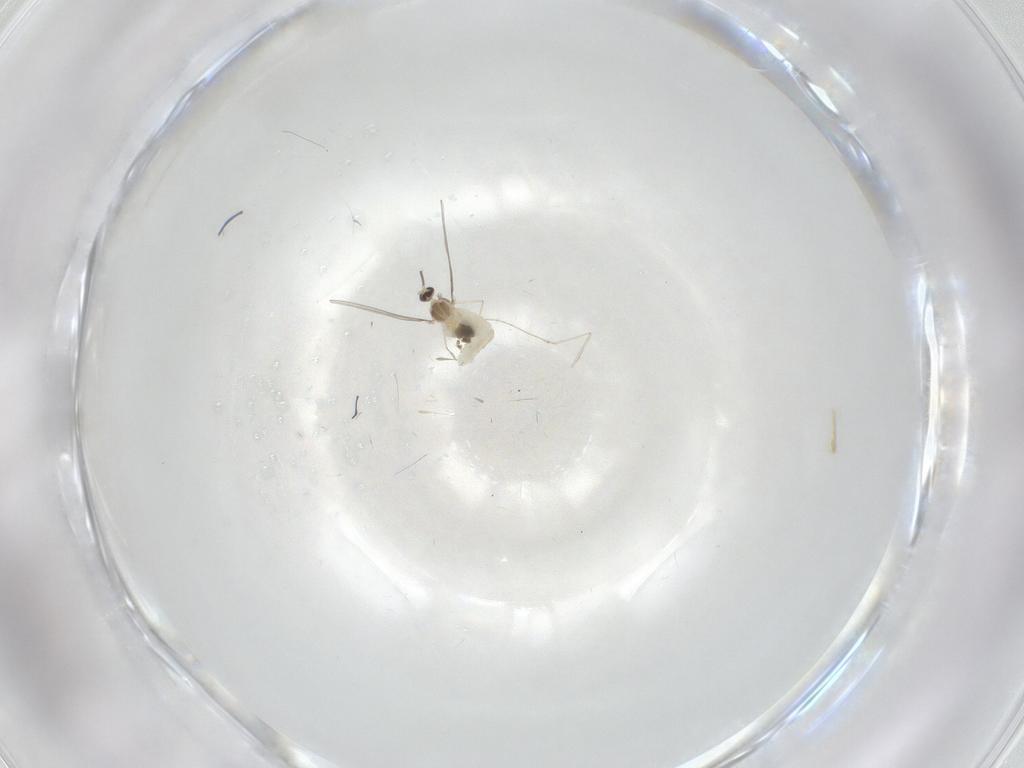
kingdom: Animalia
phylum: Arthropoda
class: Insecta
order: Diptera
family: Cecidomyiidae
